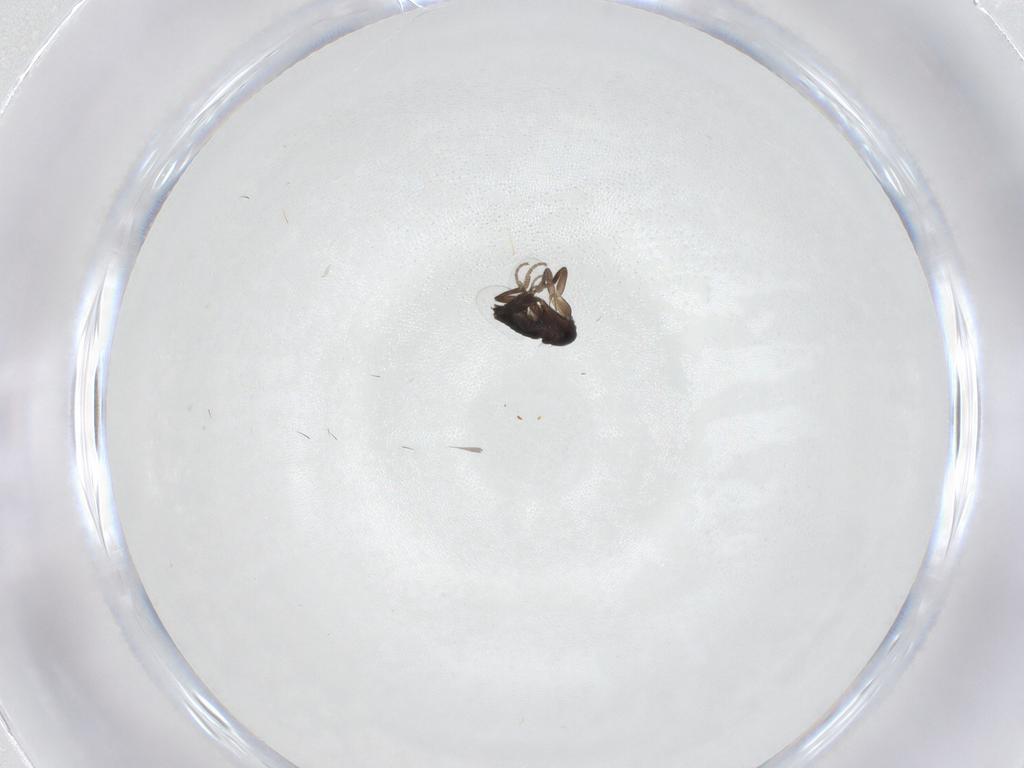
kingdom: Animalia
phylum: Arthropoda
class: Insecta
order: Diptera
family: Phoridae
